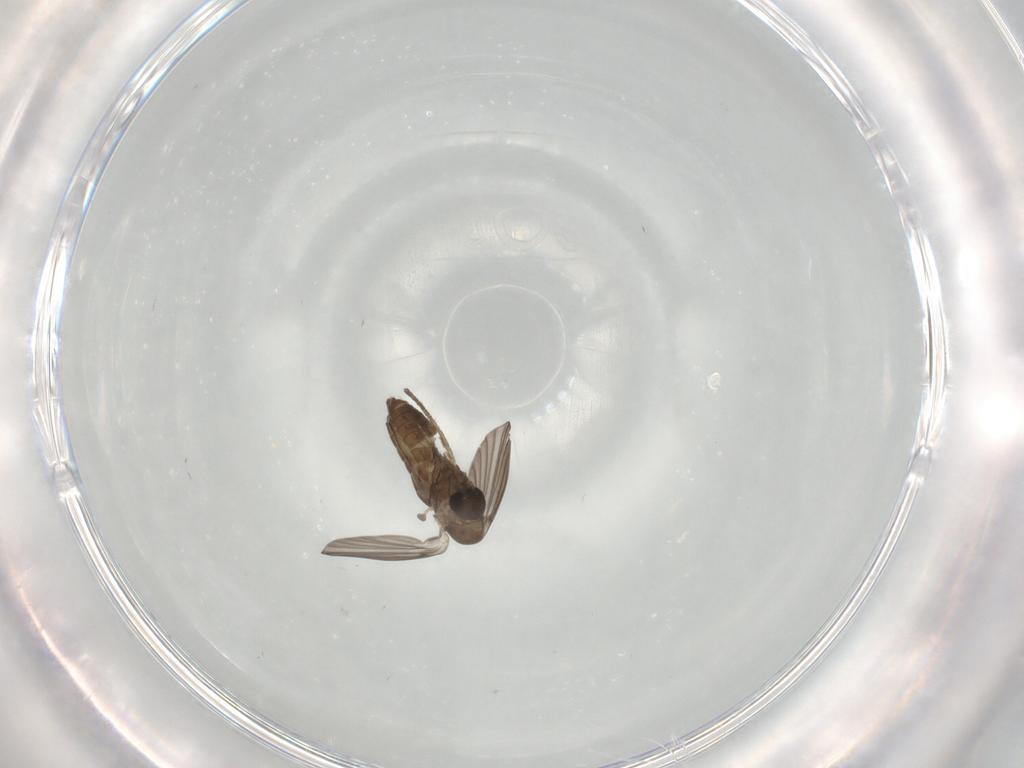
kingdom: Animalia
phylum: Arthropoda
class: Insecta
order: Diptera
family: Psychodidae
